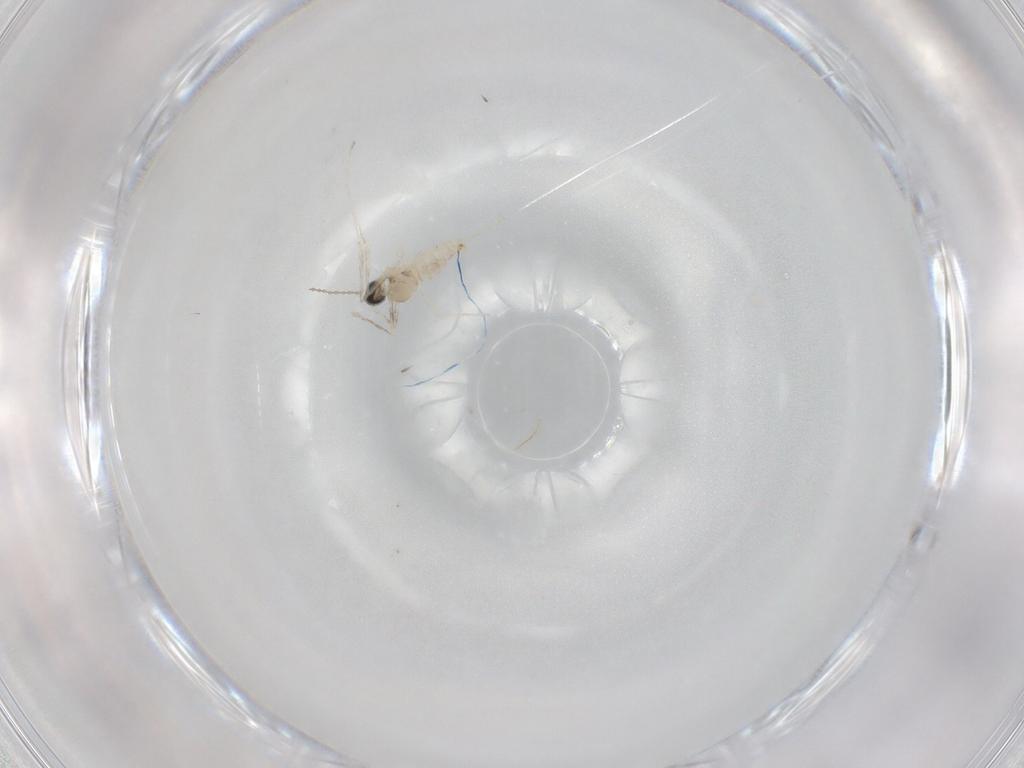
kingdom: Animalia
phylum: Arthropoda
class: Insecta
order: Diptera
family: Cecidomyiidae
